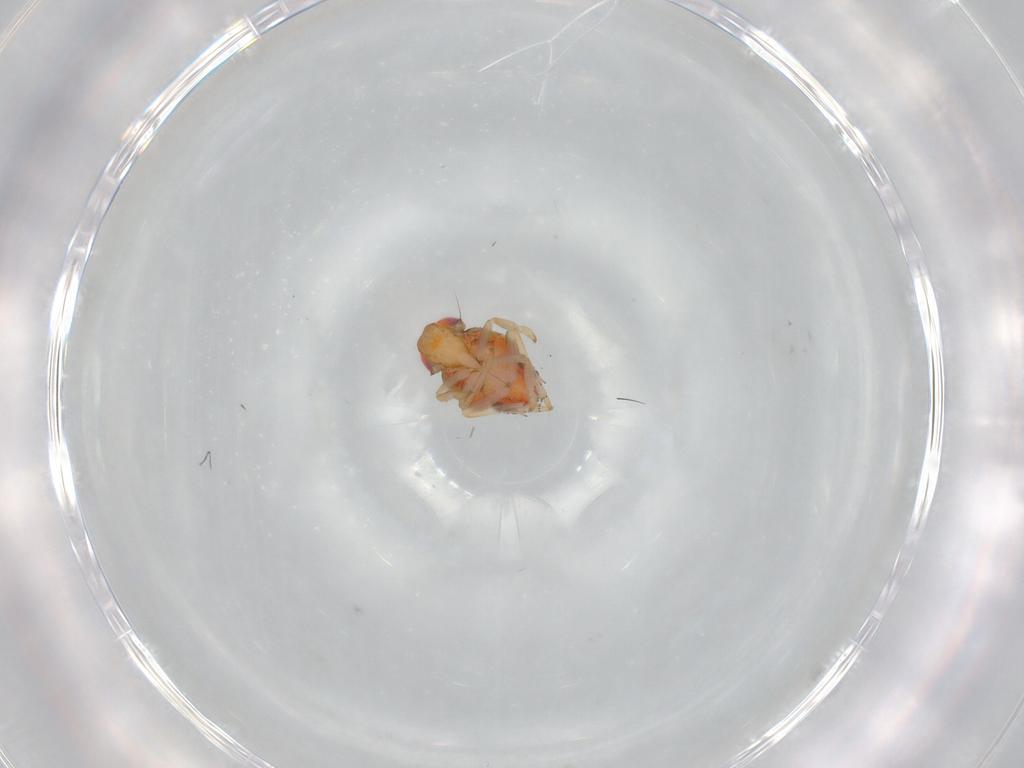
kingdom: Animalia
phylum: Arthropoda
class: Insecta
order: Hemiptera
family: Issidae
